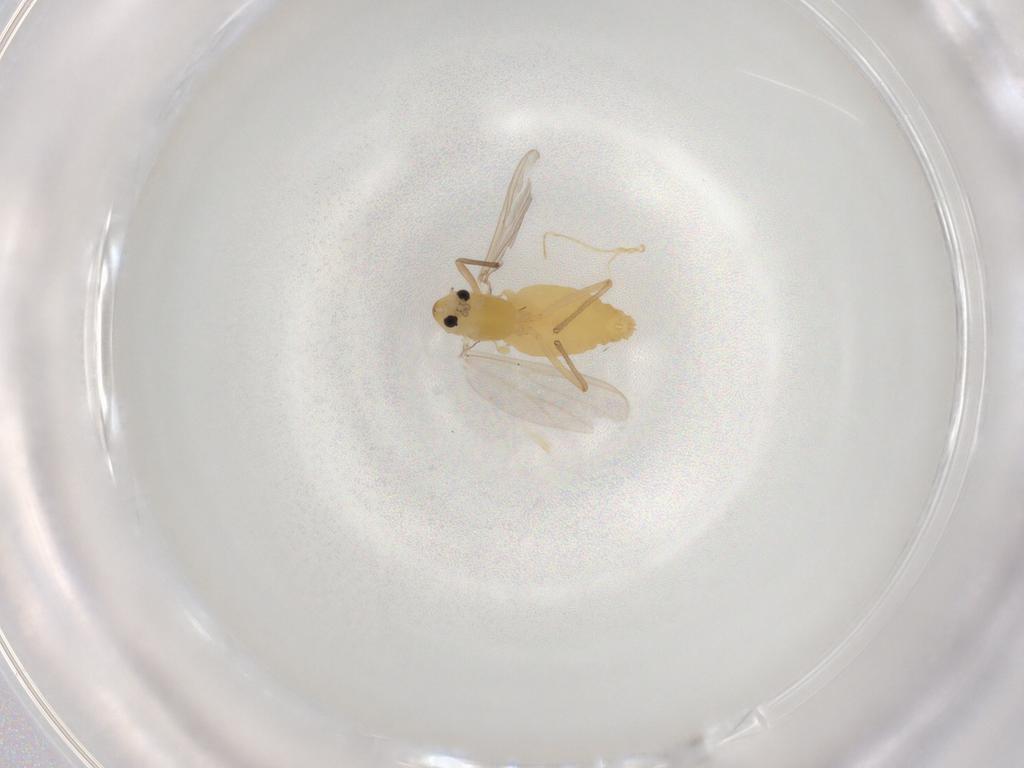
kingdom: Animalia
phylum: Arthropoda
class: Insecta
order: Diptera
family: Chironomidae
